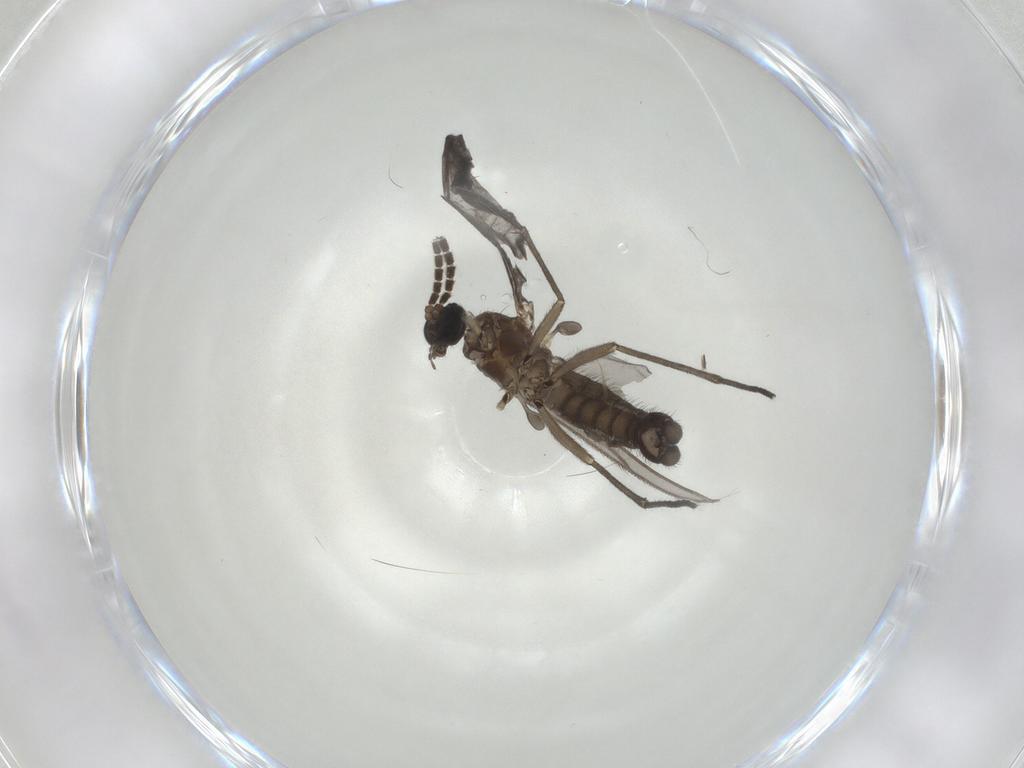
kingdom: Animalia
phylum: Arthropoda
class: Insecta
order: Diptera
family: Sciaridae
